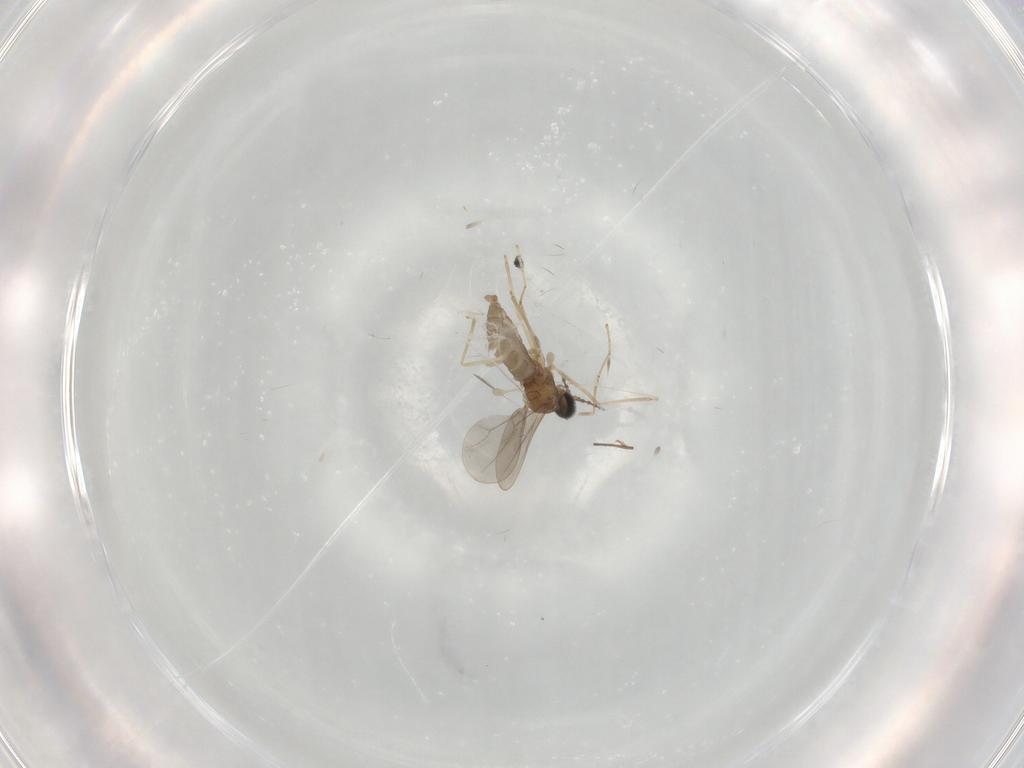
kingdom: Animalia
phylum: Arthropoda
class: Insecta
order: Diptera
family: Cecidomyiidae
